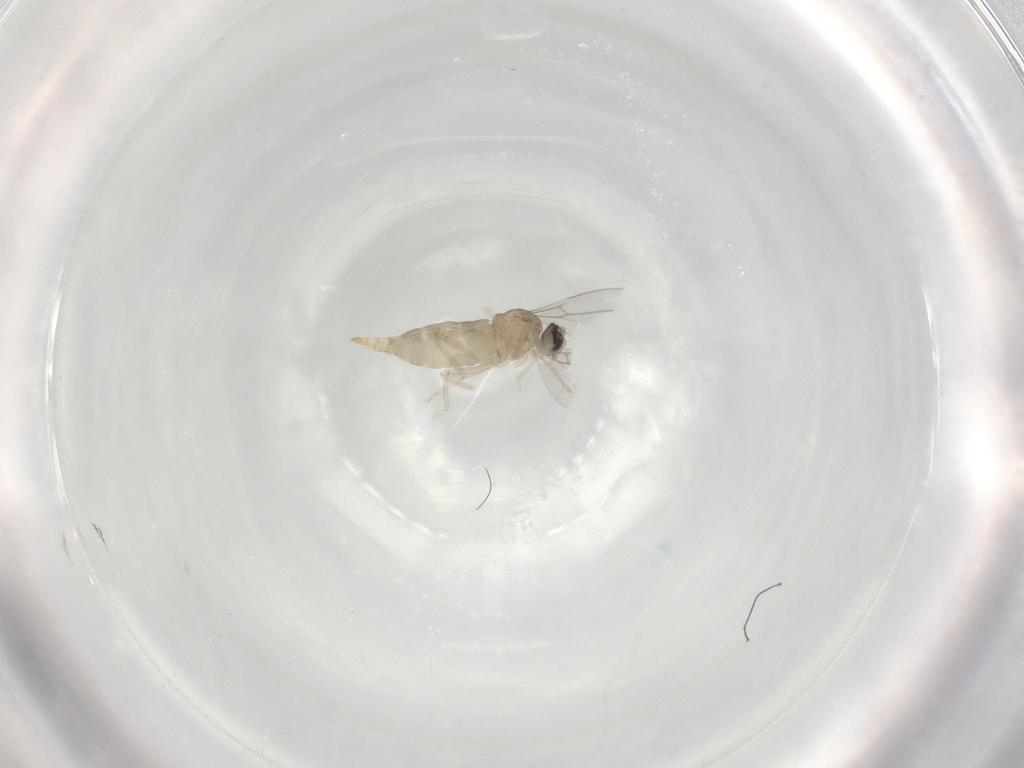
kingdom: Animalia
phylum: Arthropoda
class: Insecta
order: Diptera
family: Cecidomyiidae
